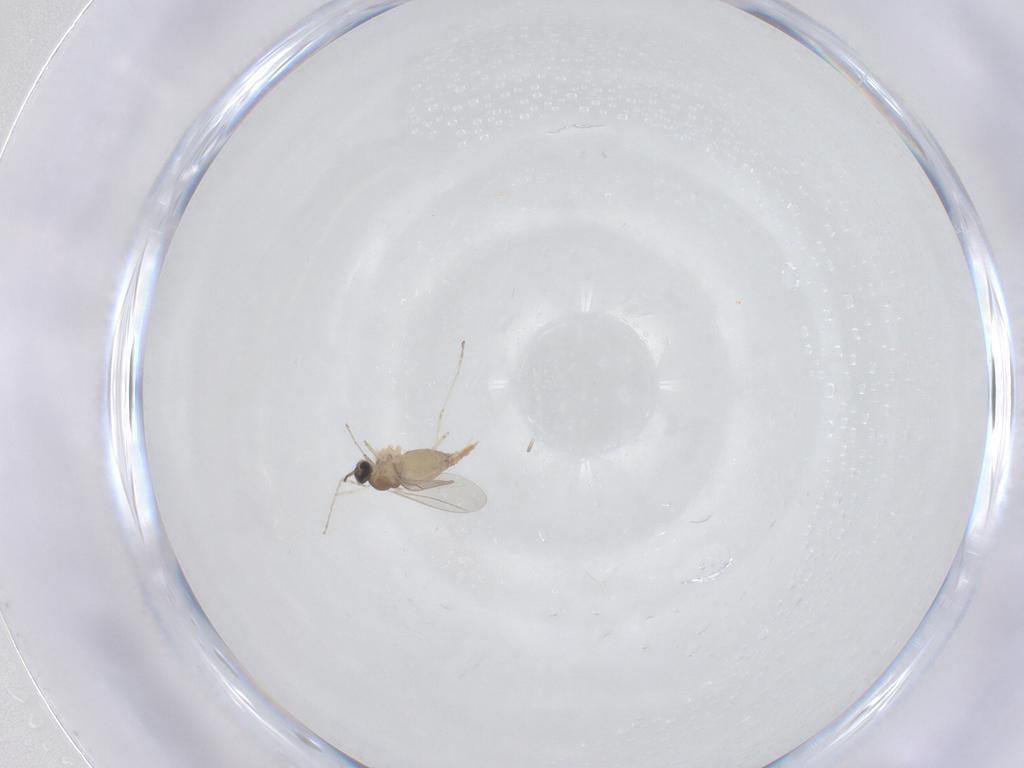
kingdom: Animalia
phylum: Arthropoda
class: Insecta
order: Diptera
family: Cecidomyiidae
